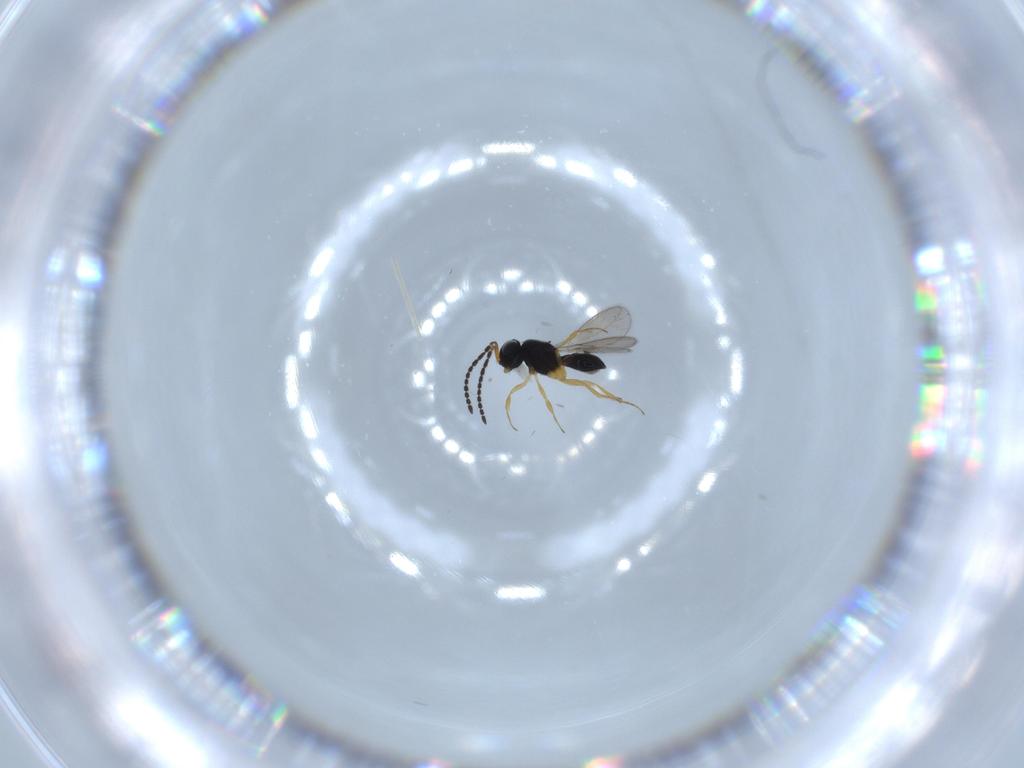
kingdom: Animalia
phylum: Arthropoda
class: Insecta
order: Hymenoptera
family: Scelionidae
